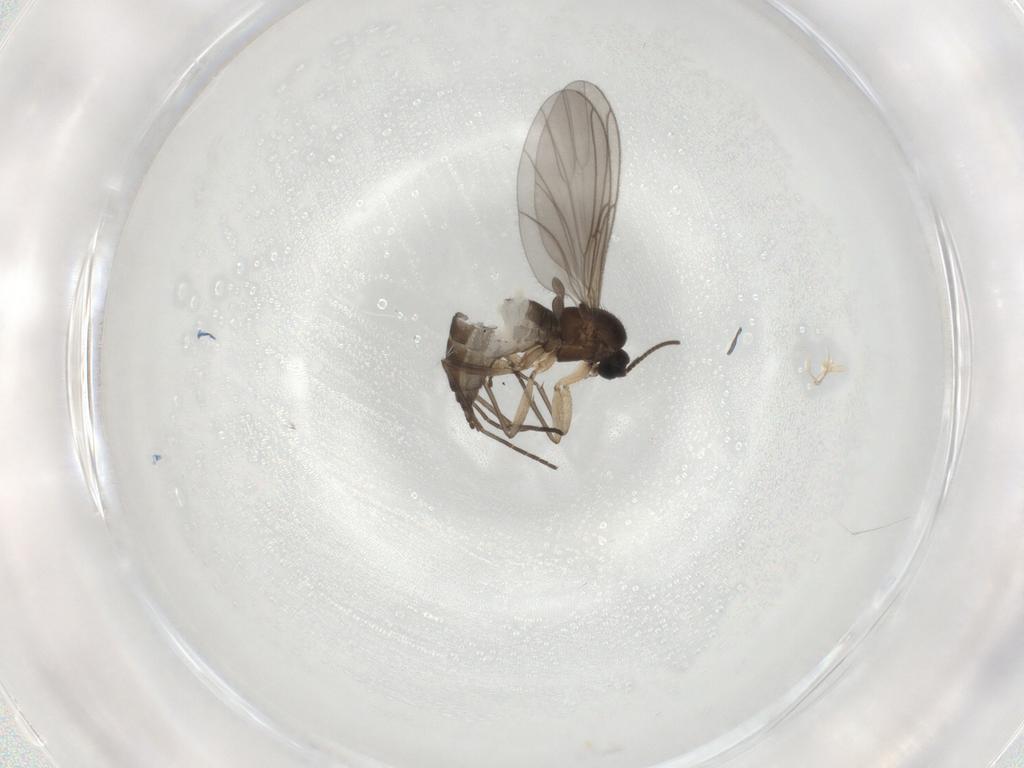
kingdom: Animalia
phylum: Arthropoda
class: Insecta
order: Diptera
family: Sciaridae
